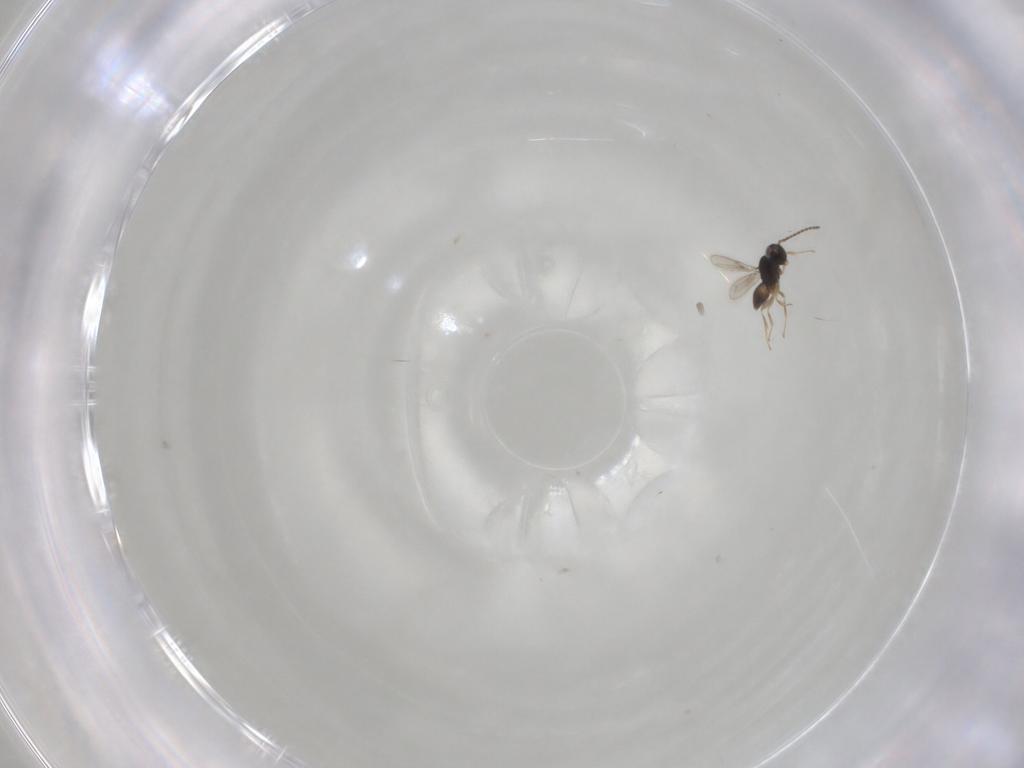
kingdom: Animalia
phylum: Arthropoda
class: Insecta
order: Hymenoptera
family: Scelionidae
